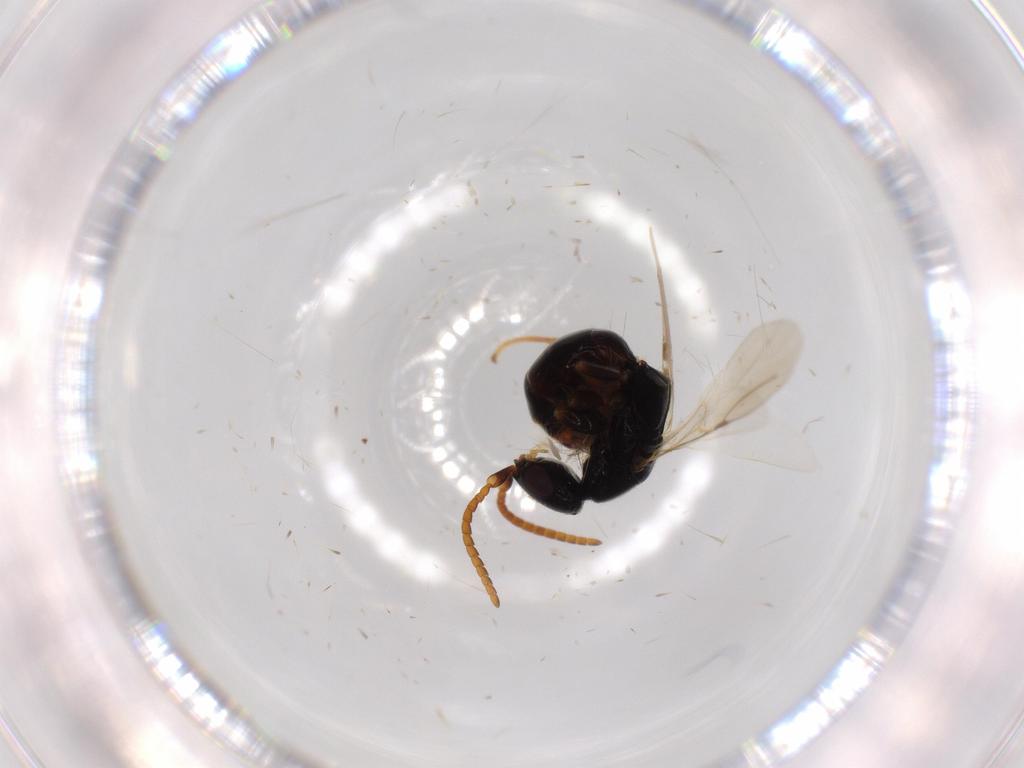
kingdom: Animalia
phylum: Arthropoda
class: Insecta
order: Hymenoptera
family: Bethylidae
